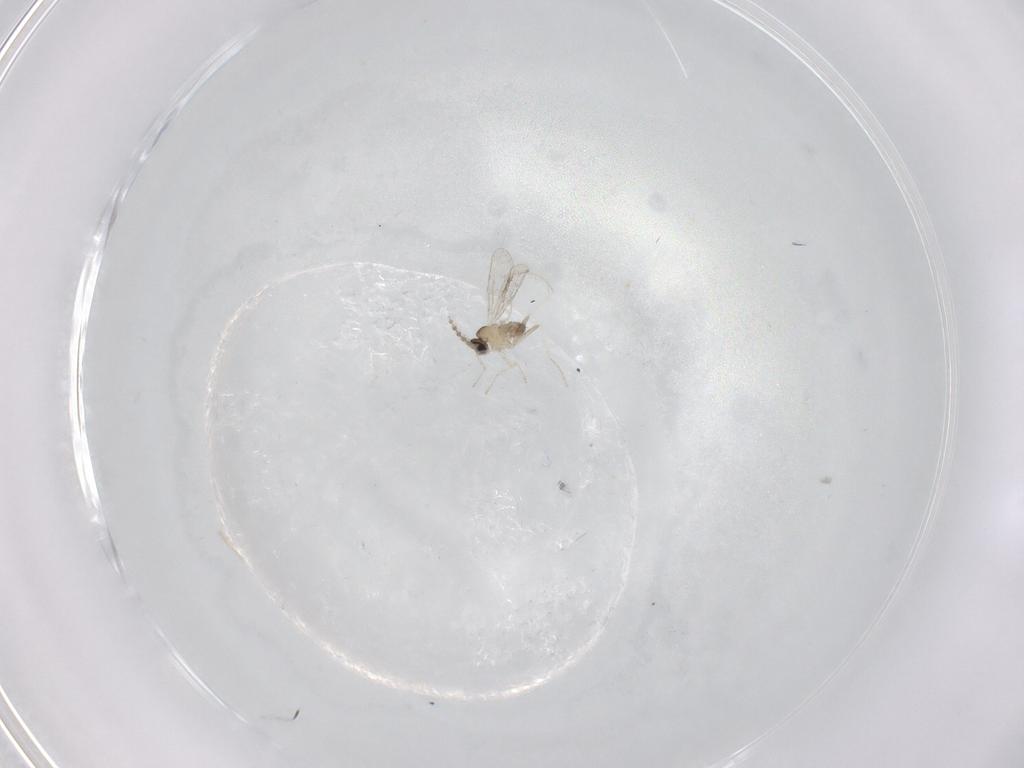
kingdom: Animalia
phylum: Arthropoda
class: Insecta
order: Diptera
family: Cecidomyiidae
